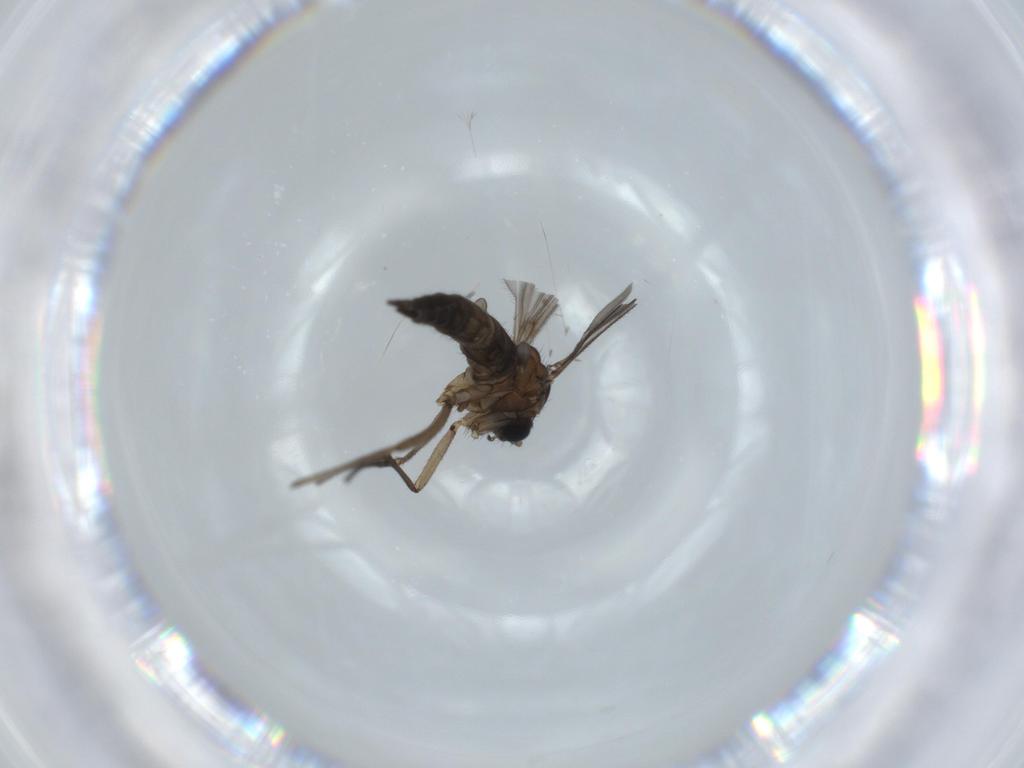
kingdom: Animalia
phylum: Arthropoda
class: Insecta
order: Diptera
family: Sciaridae
